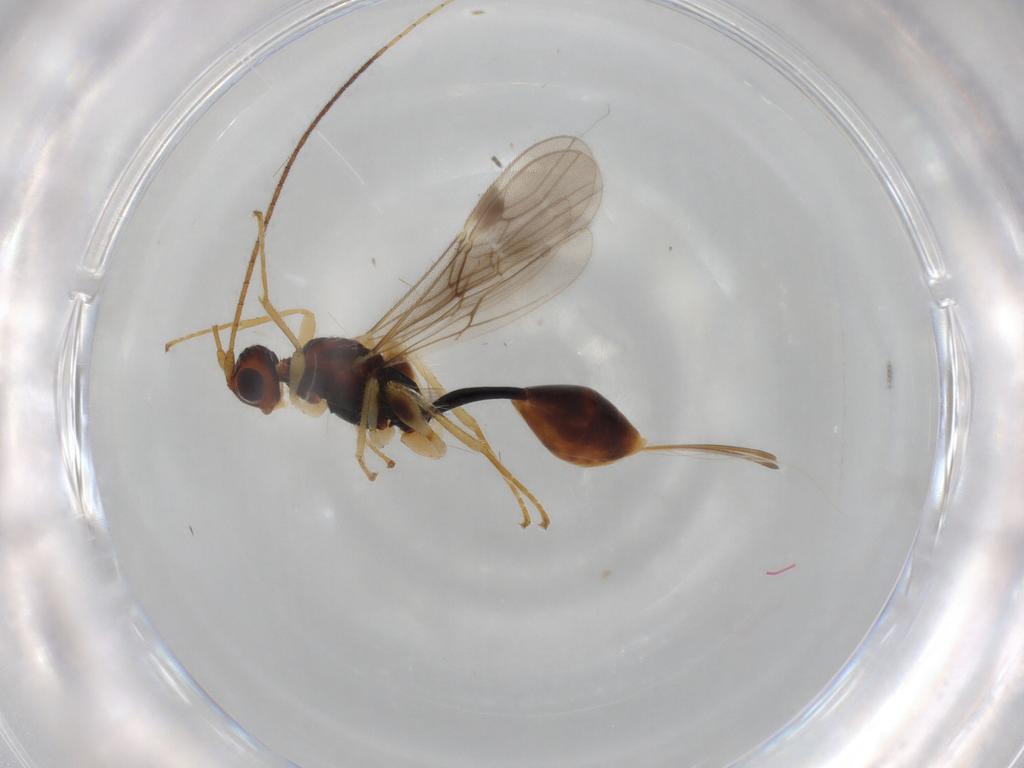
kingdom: Animalia
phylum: Arthropoda
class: Insecta
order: Hymenoptera
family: Braconidae
